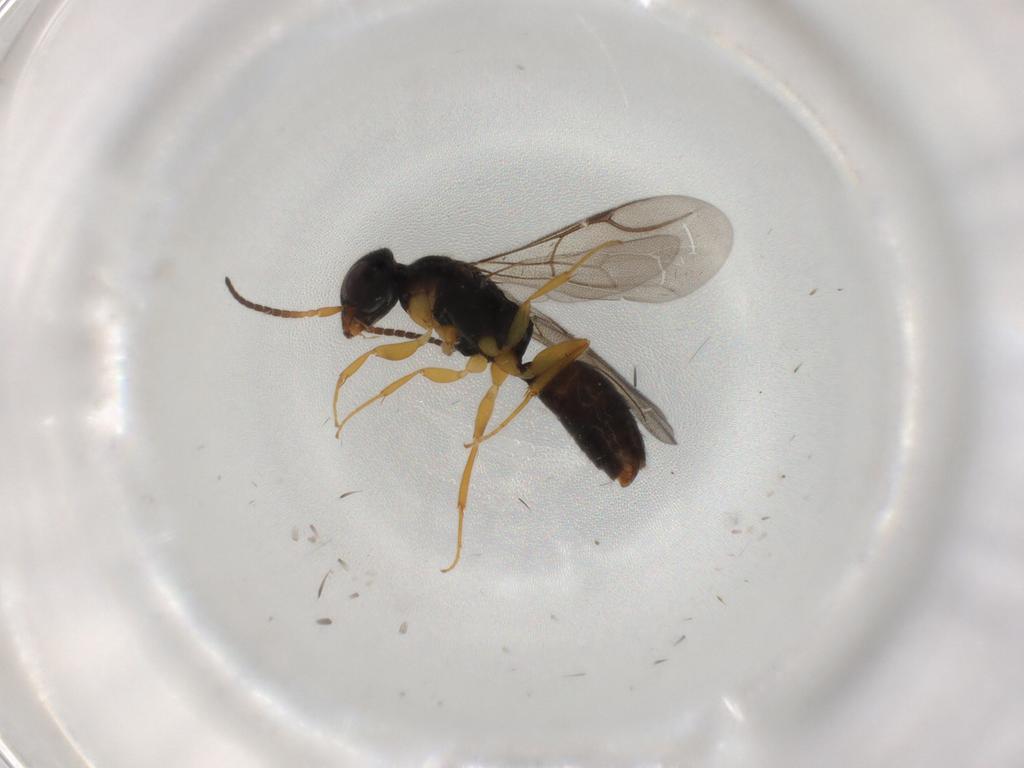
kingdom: Animalia
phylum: Arthropoda
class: Insecta
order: Hymenoptera
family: Bethylidae
